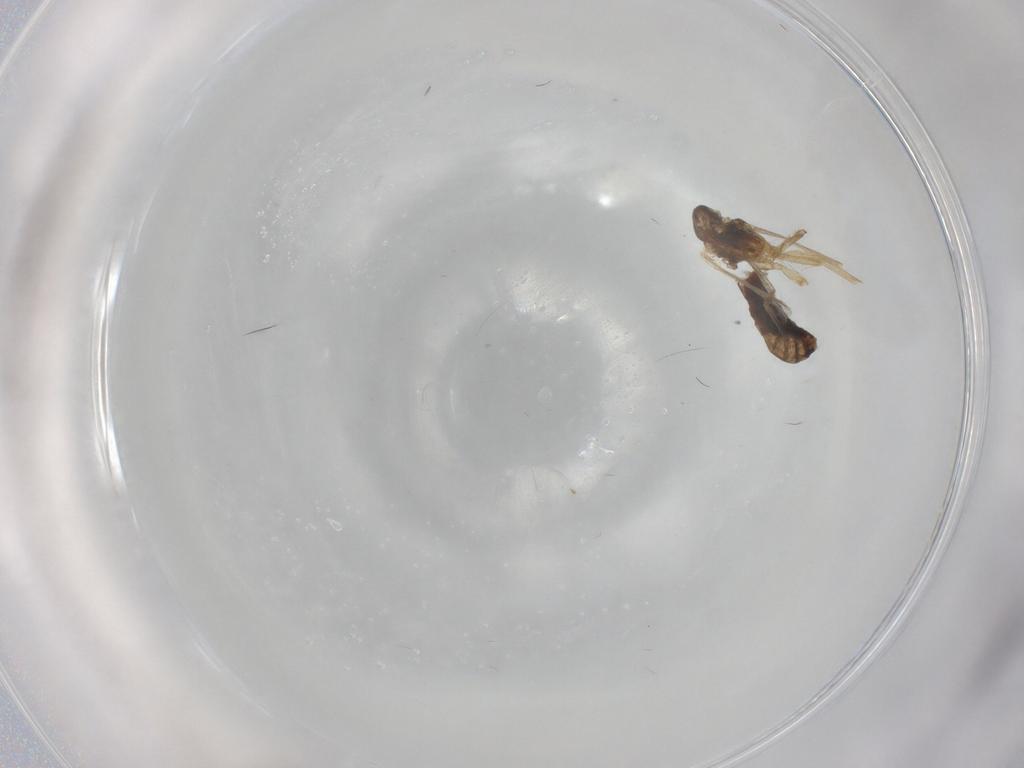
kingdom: Animalia
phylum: Arthropoda
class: Insecta
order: Diptera
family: Chironomidae
